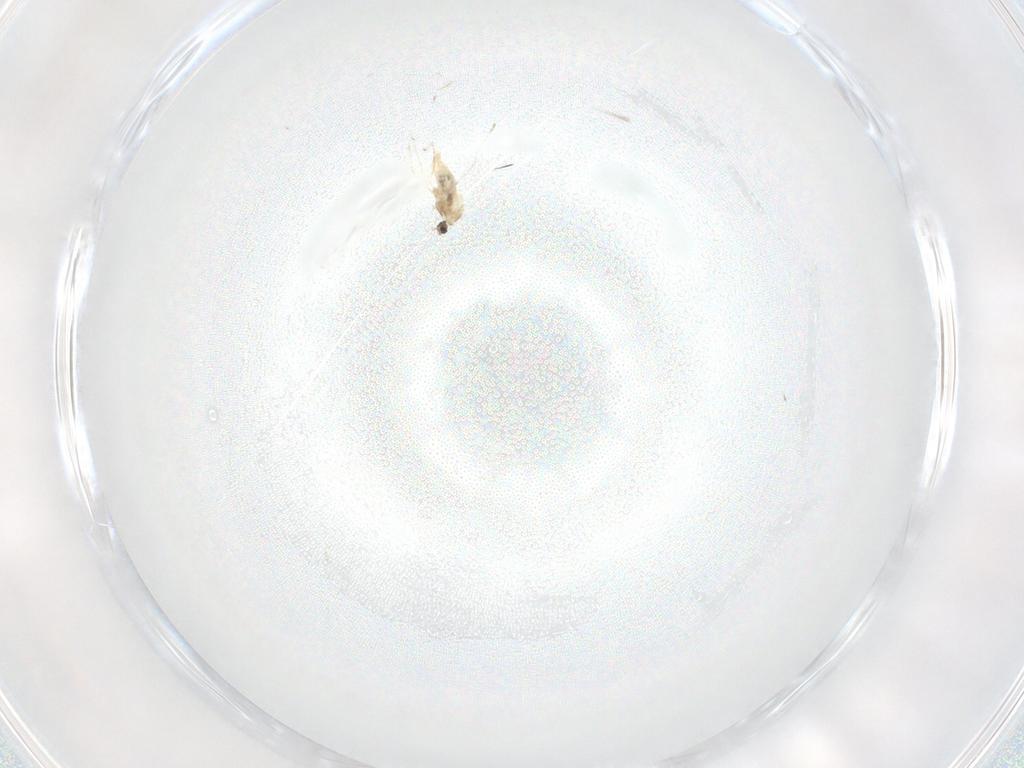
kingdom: Animalia
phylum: Arthropoda
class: Insecta
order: Diptera
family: Cecidomyiidae
